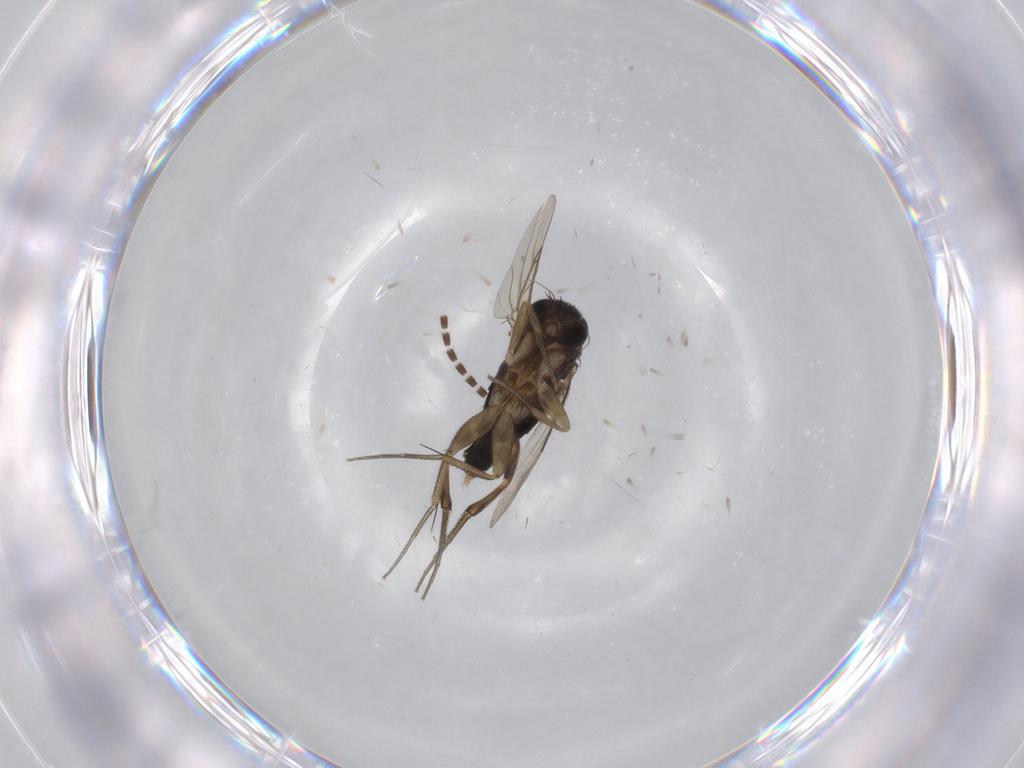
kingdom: Animalia
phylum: Arthropoda
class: Insecta
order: Diptera
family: Phoridae
